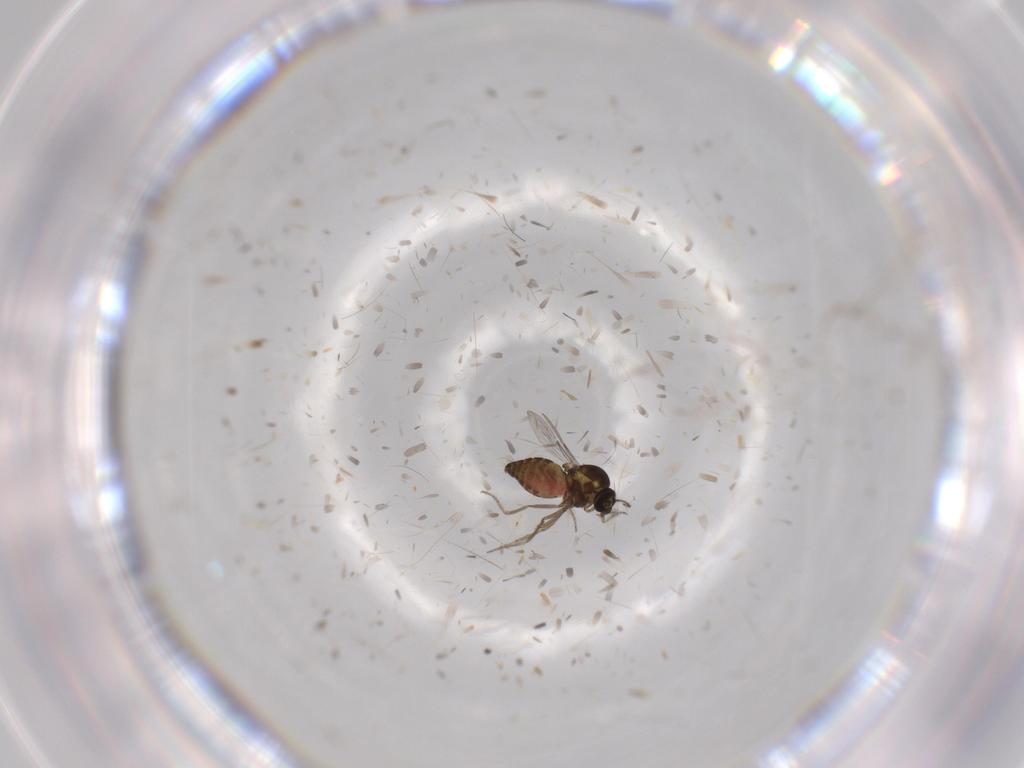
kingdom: Animalia
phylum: Arthropoda
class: Insecta
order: Diptera
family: Ceratopogonidae
